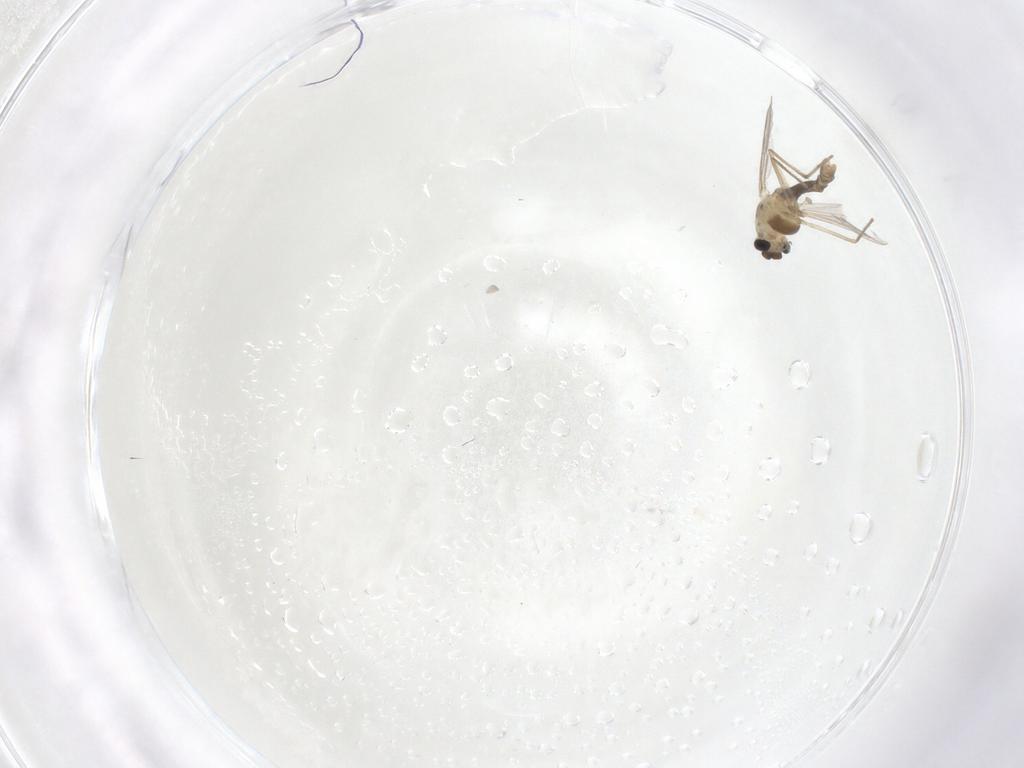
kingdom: Animalia
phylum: Arthropoda
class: Insecta
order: Diptera
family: Chironomidae
